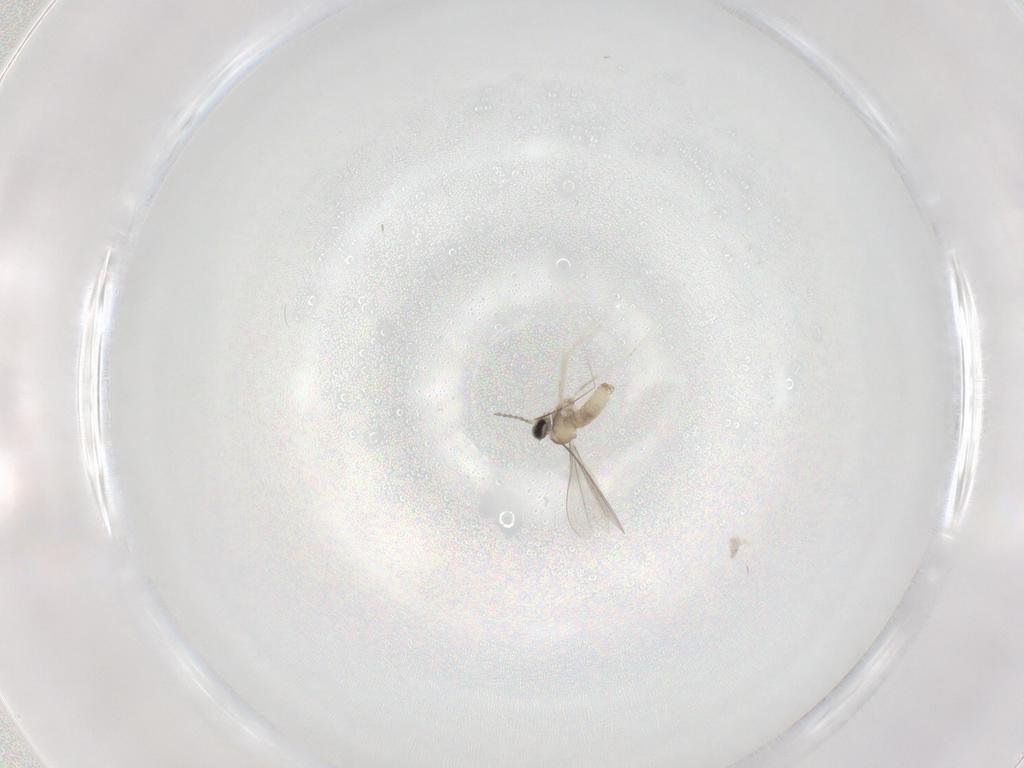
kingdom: Animalia
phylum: Arthropoda
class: Insecta
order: Diptera
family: Cecidomyiidae
